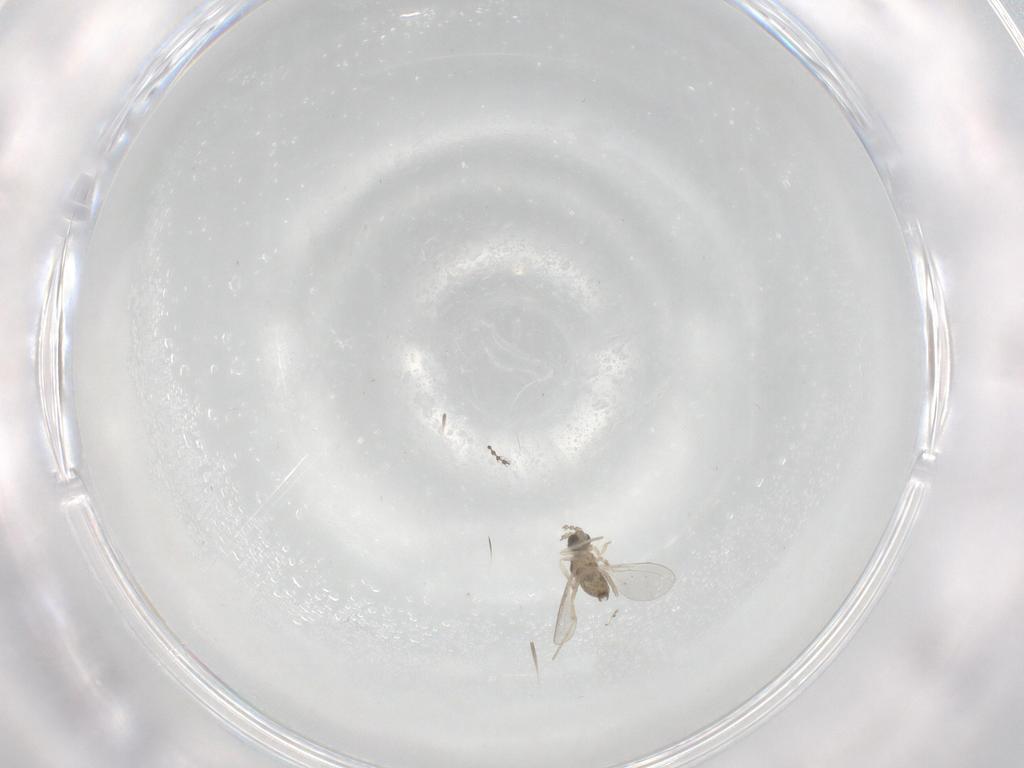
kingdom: Animalia
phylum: Arthropoda
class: Insecta
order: Diptera
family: Cecidomyiidae
